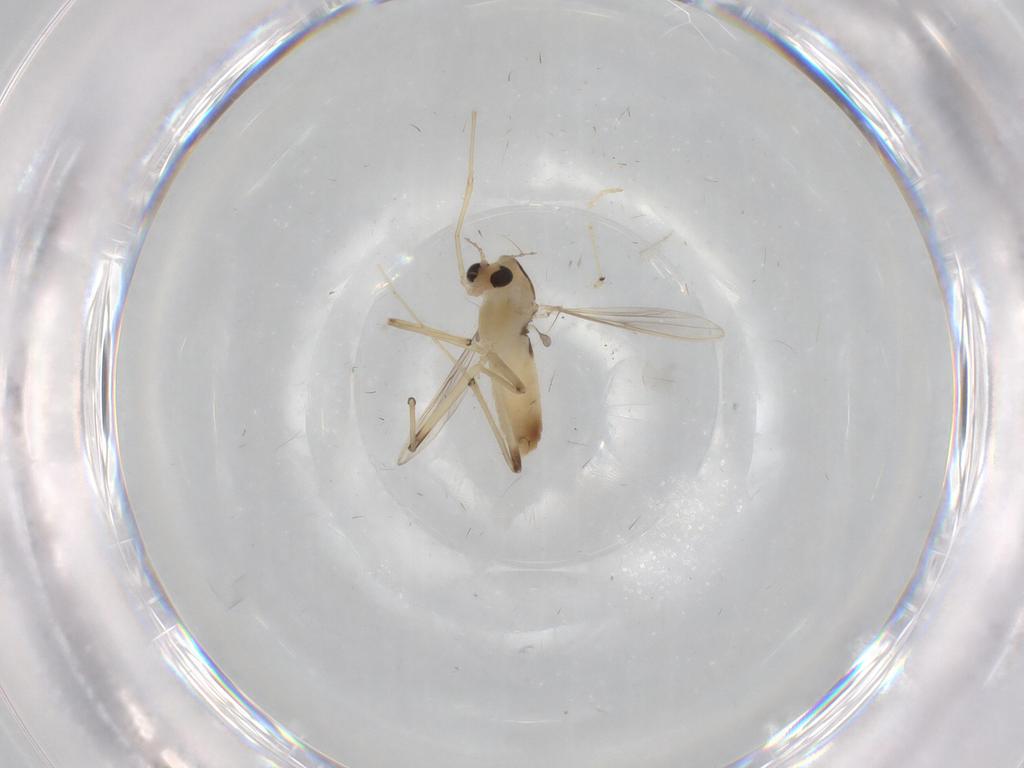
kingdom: Animalia
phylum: Arthropoda
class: Insecta
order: Diptera
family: Chironomidae
